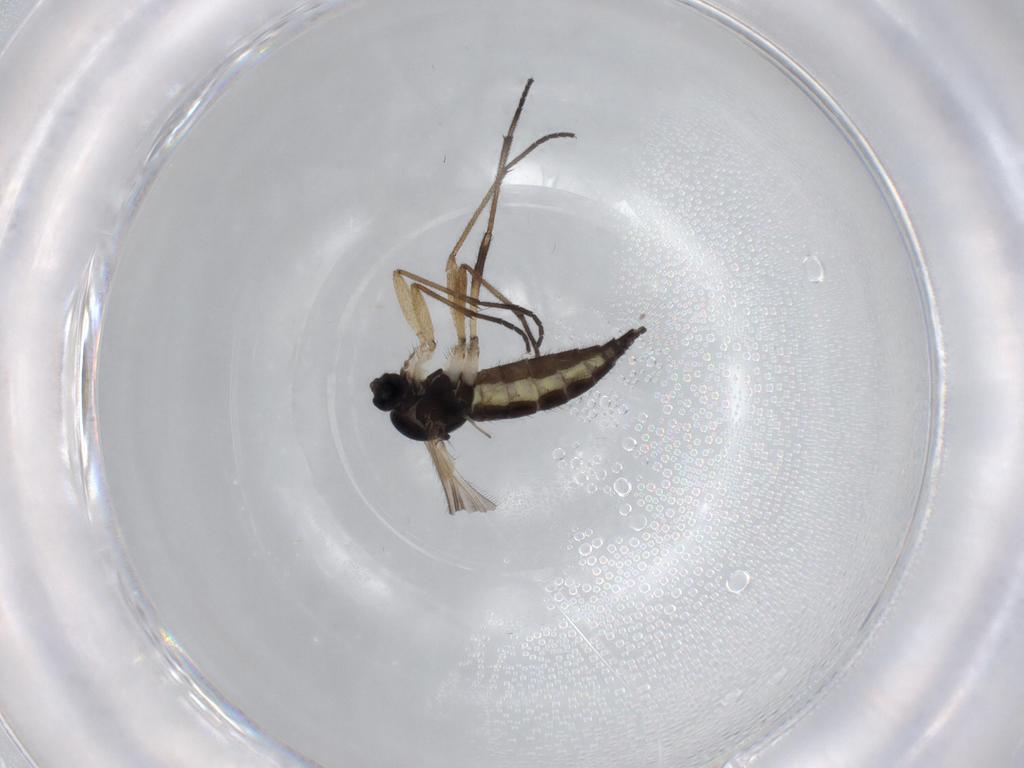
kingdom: Animalia
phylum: Arthropoda
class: Insecta
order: Diptera
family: Sciaridae
